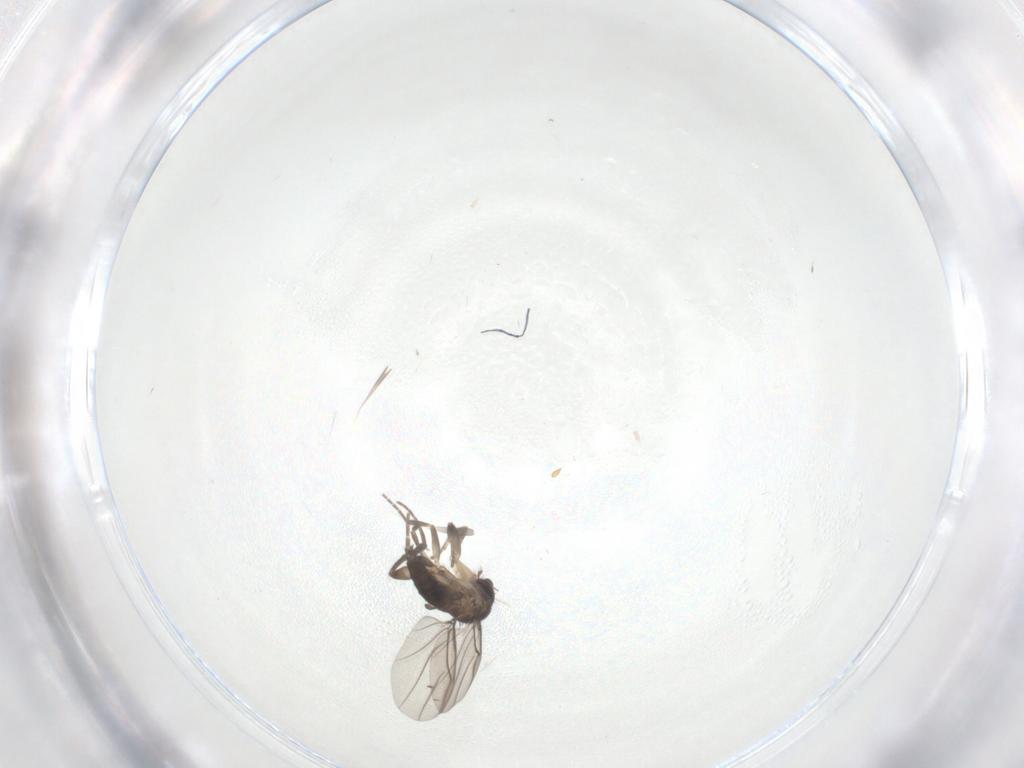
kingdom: Animalia
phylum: Arthropoda
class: Insecta
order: Diptera
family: Phoridae
